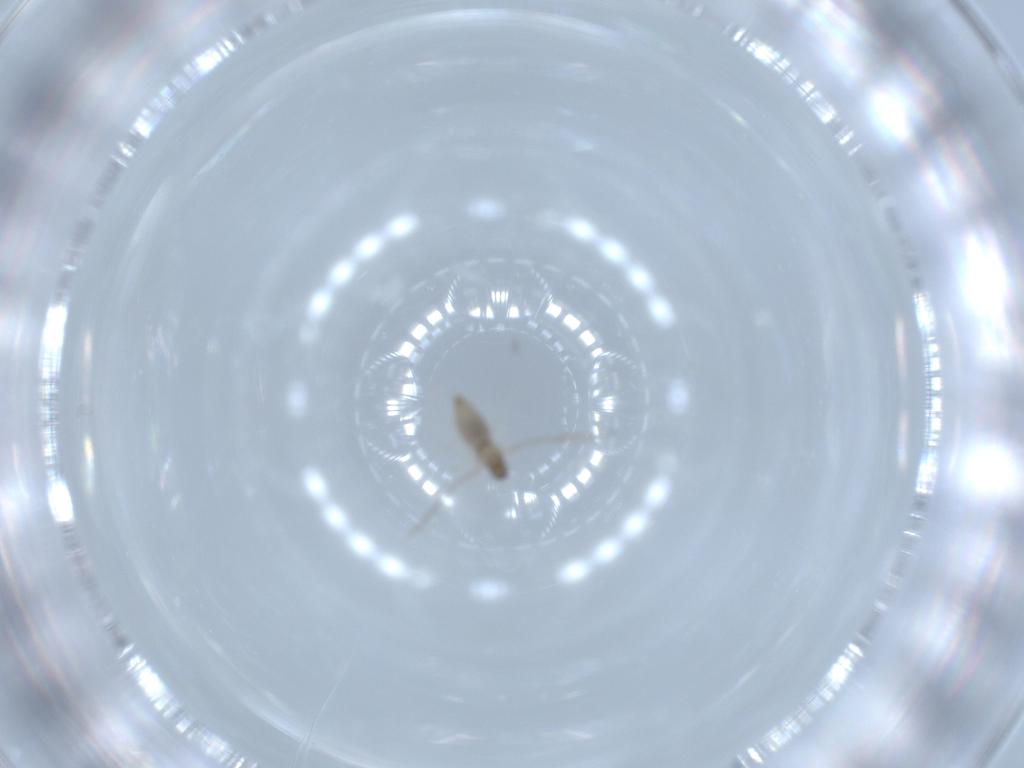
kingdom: Animalia
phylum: Arthropoda
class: Insecta
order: Diptera
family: Cecidomyiidae
